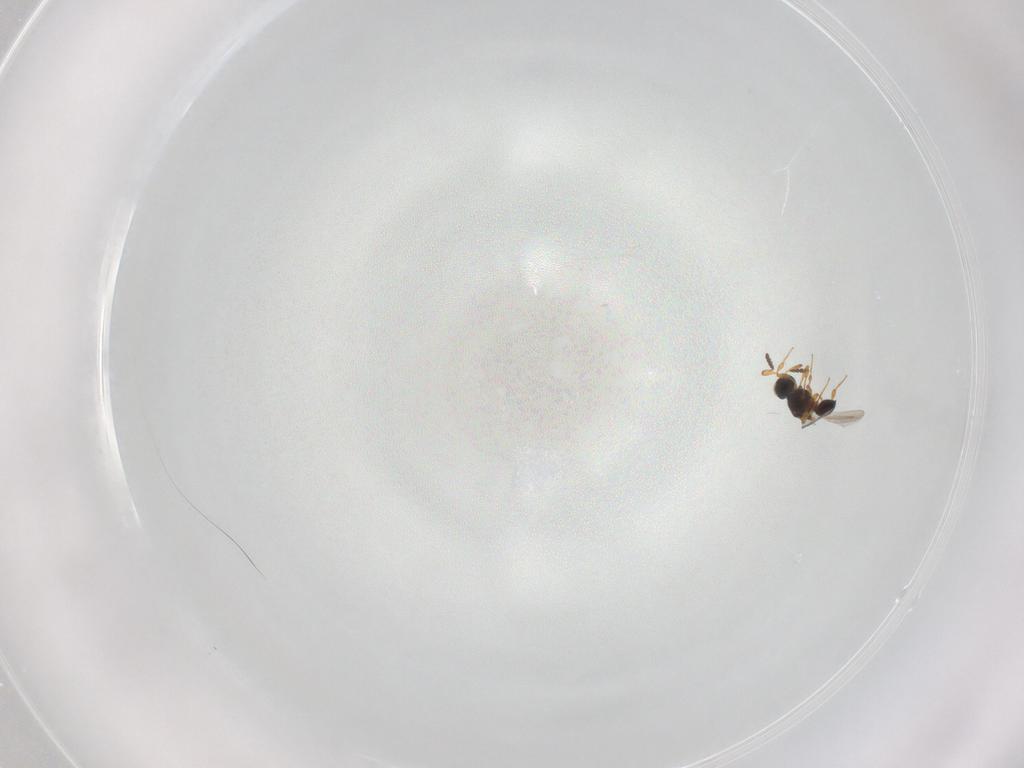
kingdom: Animalia
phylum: Arthropoda
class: Insecta
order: Hymenoptera
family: Platygastridae
